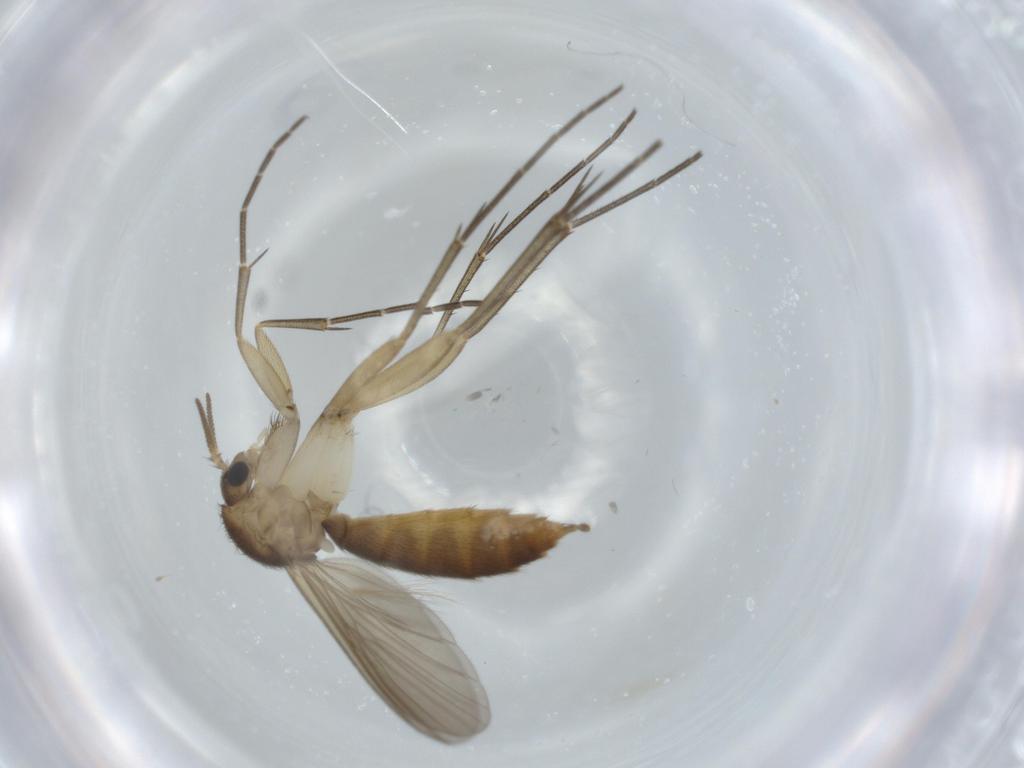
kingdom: Animalia
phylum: Arthropoda
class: Insecta
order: Diptera
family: Mycetophilidae
